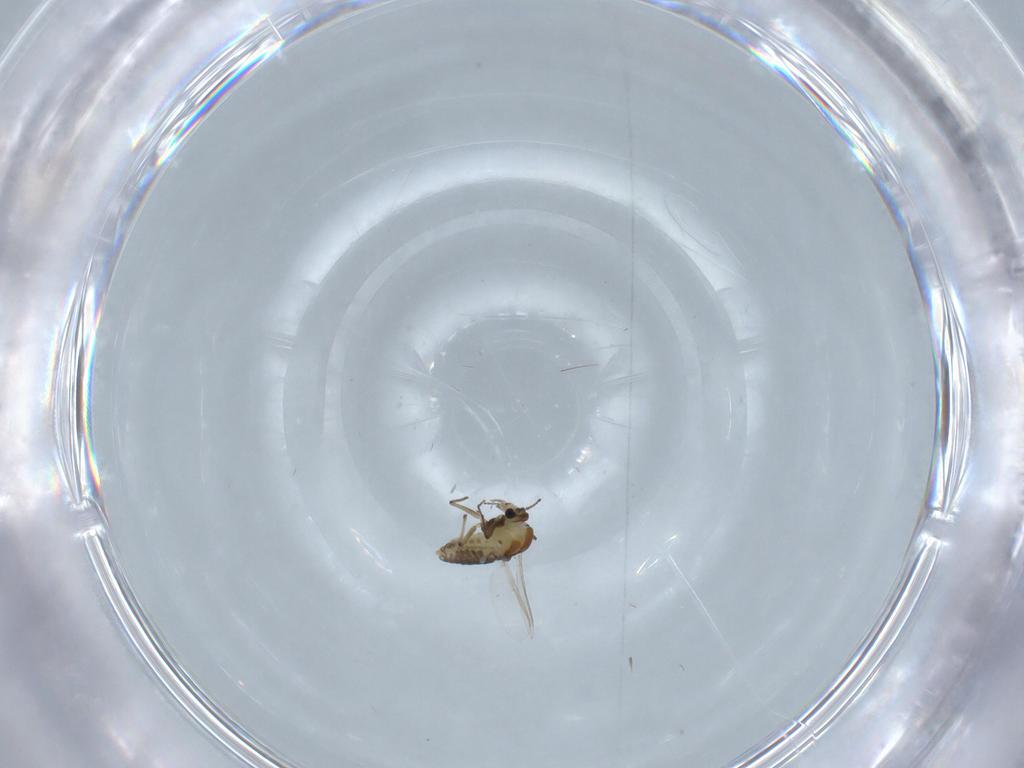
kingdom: Animalia
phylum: Arthropoda
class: Insecta
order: Diptera
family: Chironomidae
